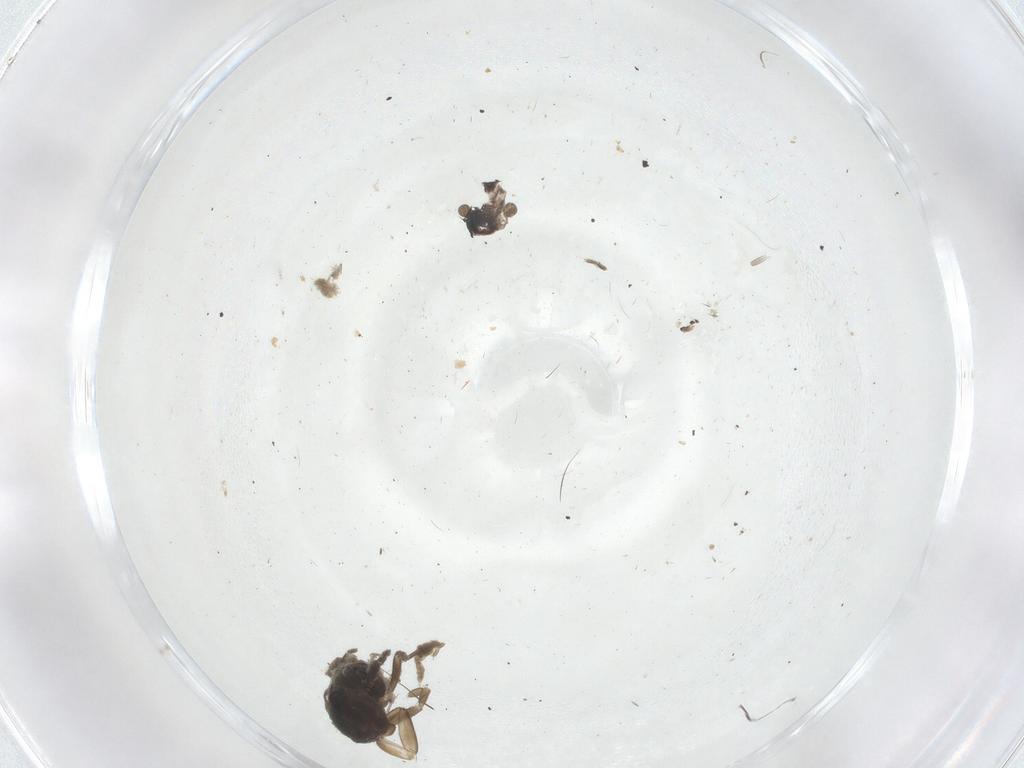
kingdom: Animalia
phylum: Arthropoda
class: Insecta
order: Diptera
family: Phoridae
